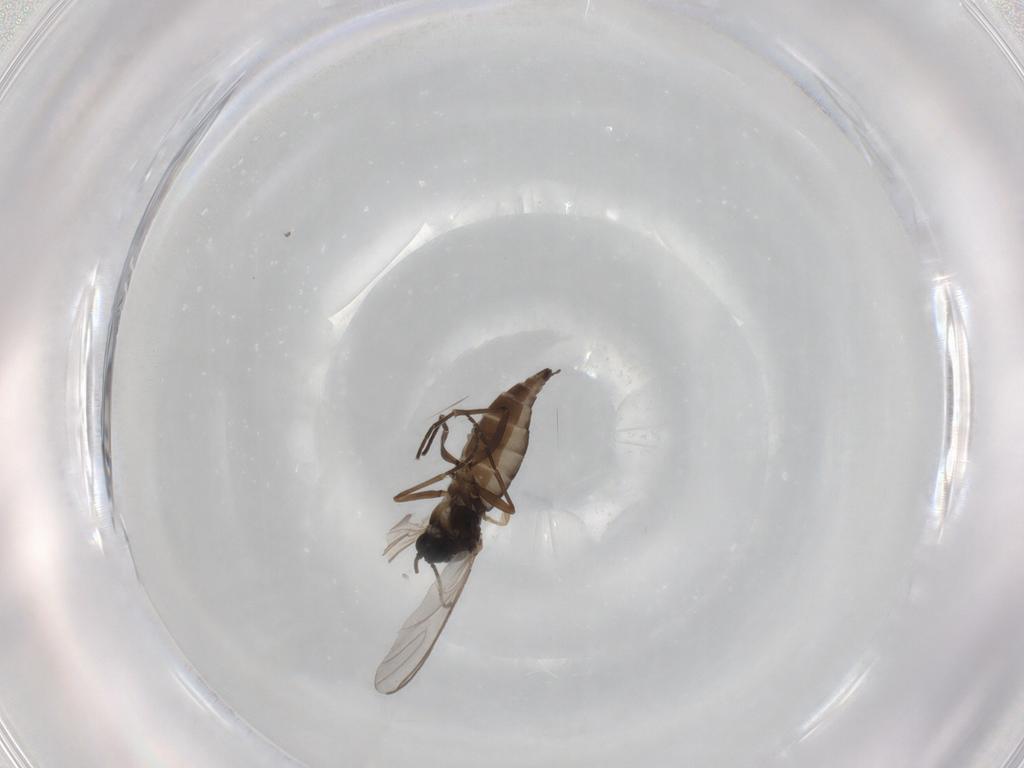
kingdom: Animalia
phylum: Arthropoda
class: Insecta
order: Diptera
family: Sciaridae
